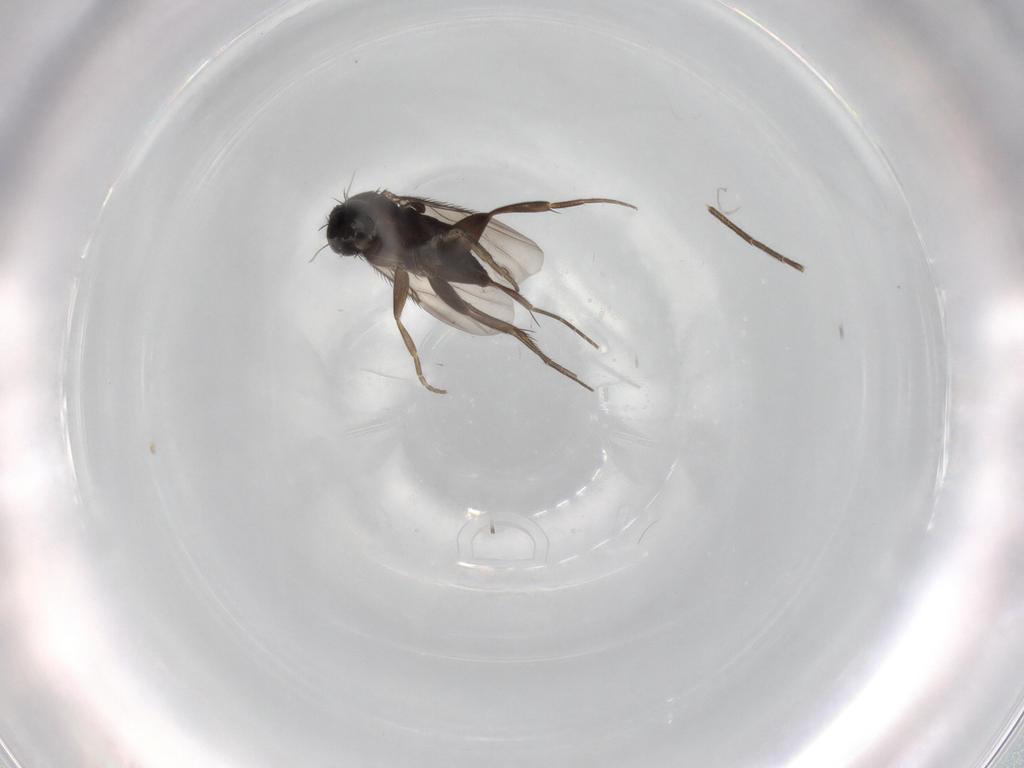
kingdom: Animalia
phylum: Arthropoda
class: Insecta
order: Diptera
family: Phoridae
